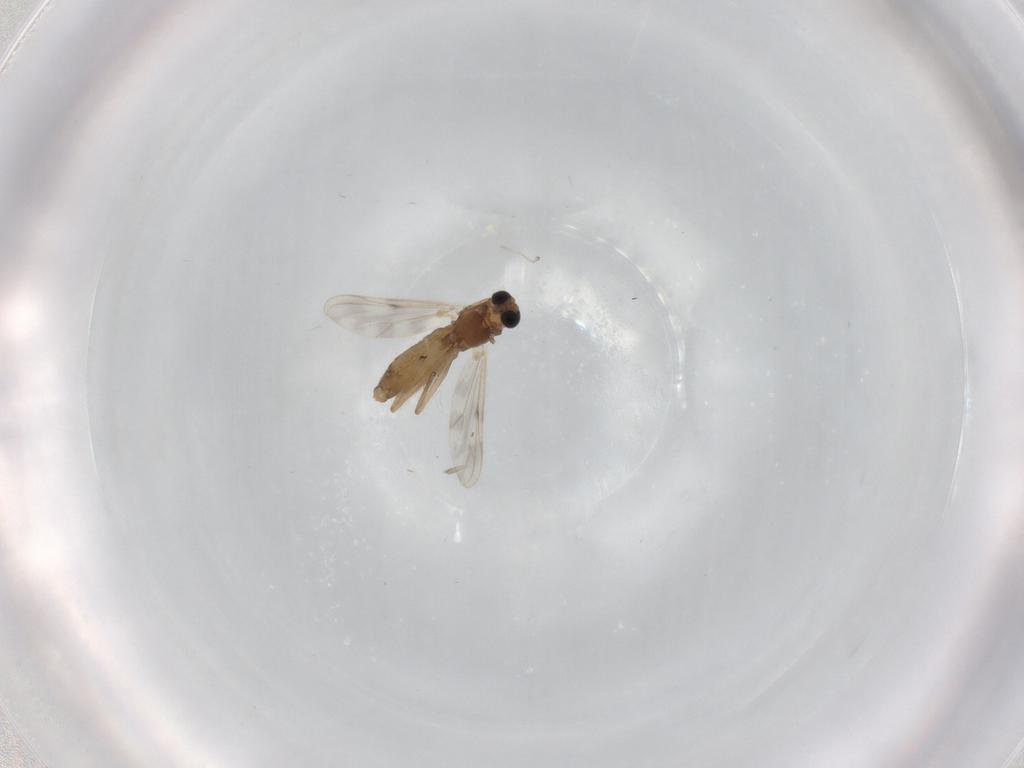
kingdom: Animalia
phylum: Arthropoda
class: Insecta
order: Diptera
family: Chironomidae
